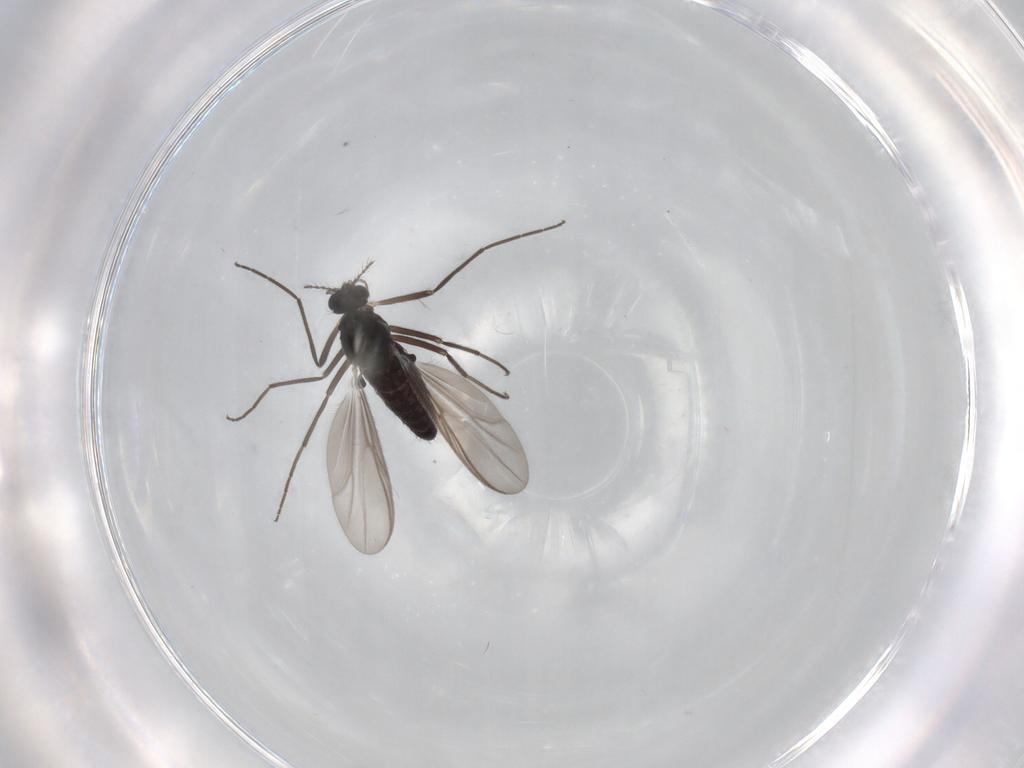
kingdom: Animalia
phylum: Arthropoda
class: Insecta
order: Diptera
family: Chironomidae
